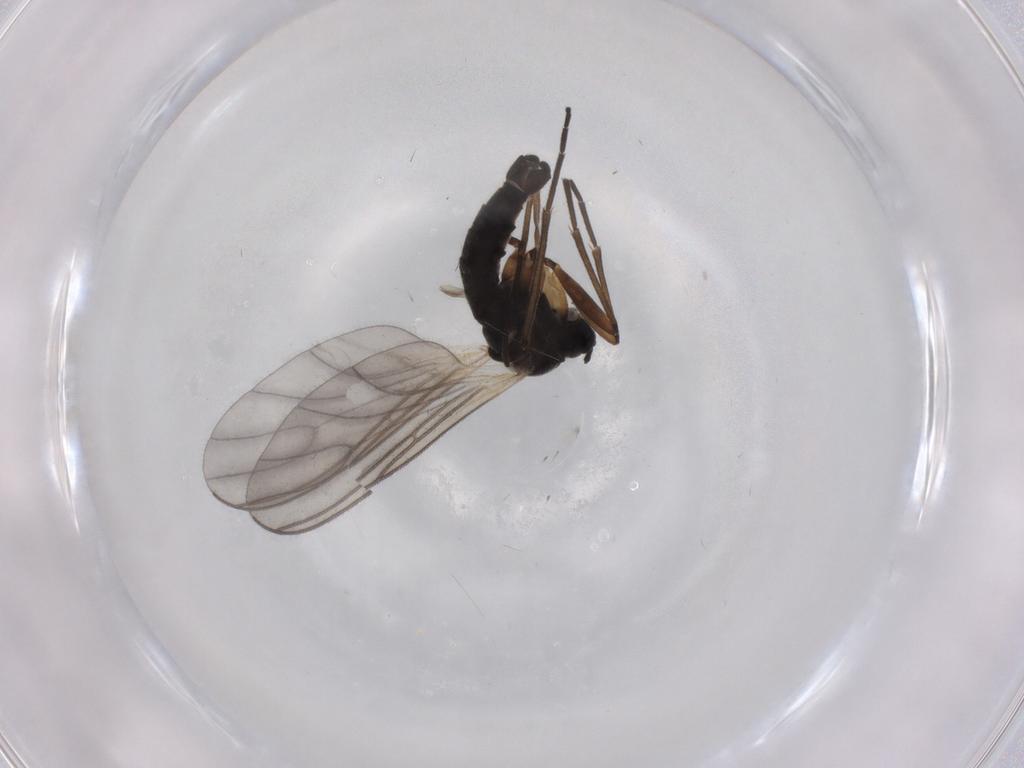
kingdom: Animalia
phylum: Arthropoda
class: Insecta
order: Diptera
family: Sciaridae
